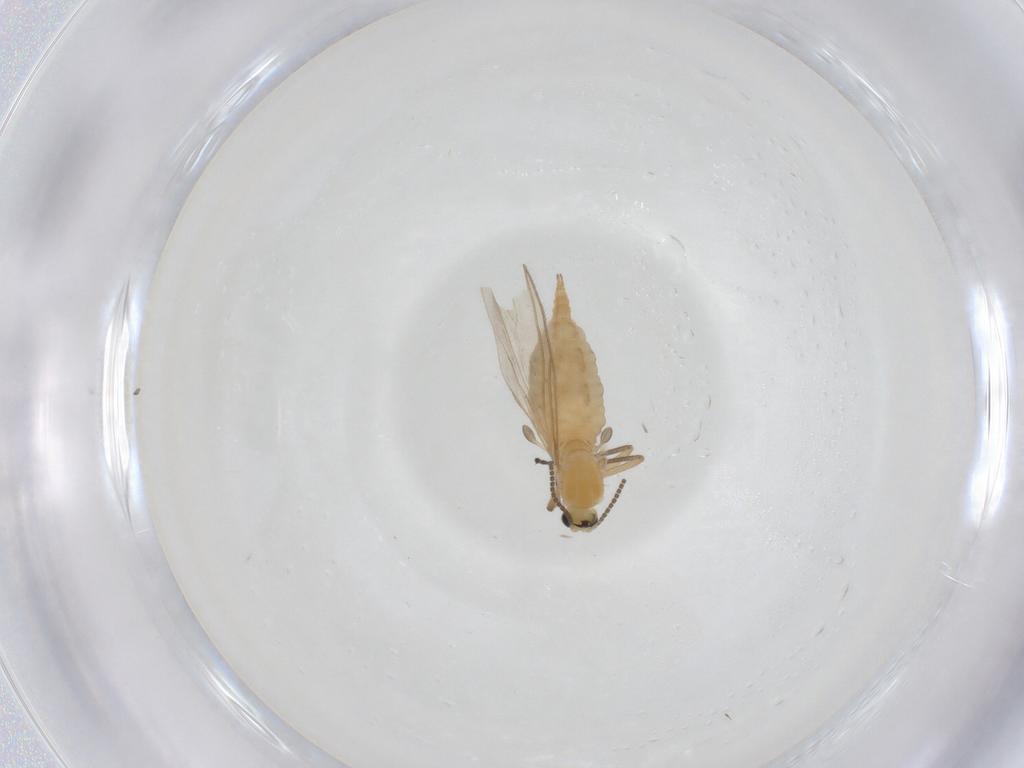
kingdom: Animalia
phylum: Arthropoda
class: Insecta
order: Diptera
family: Sciaridae
